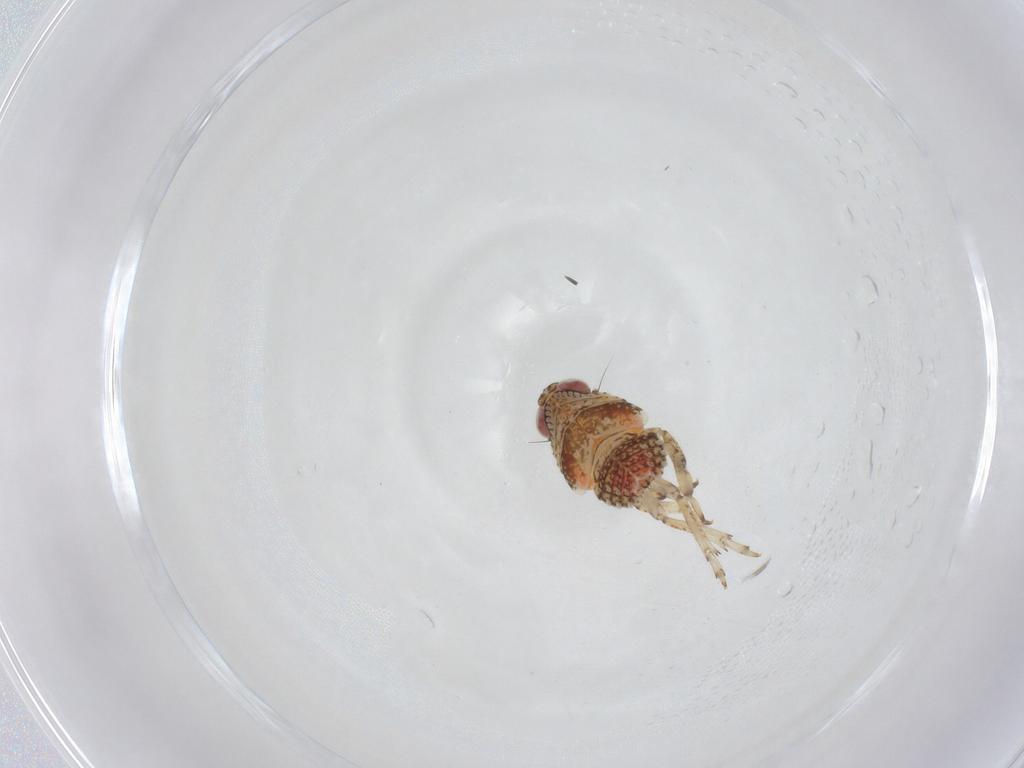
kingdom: Animalia
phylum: Arthropoda
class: Insecta
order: Hemiptera
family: Issidae
